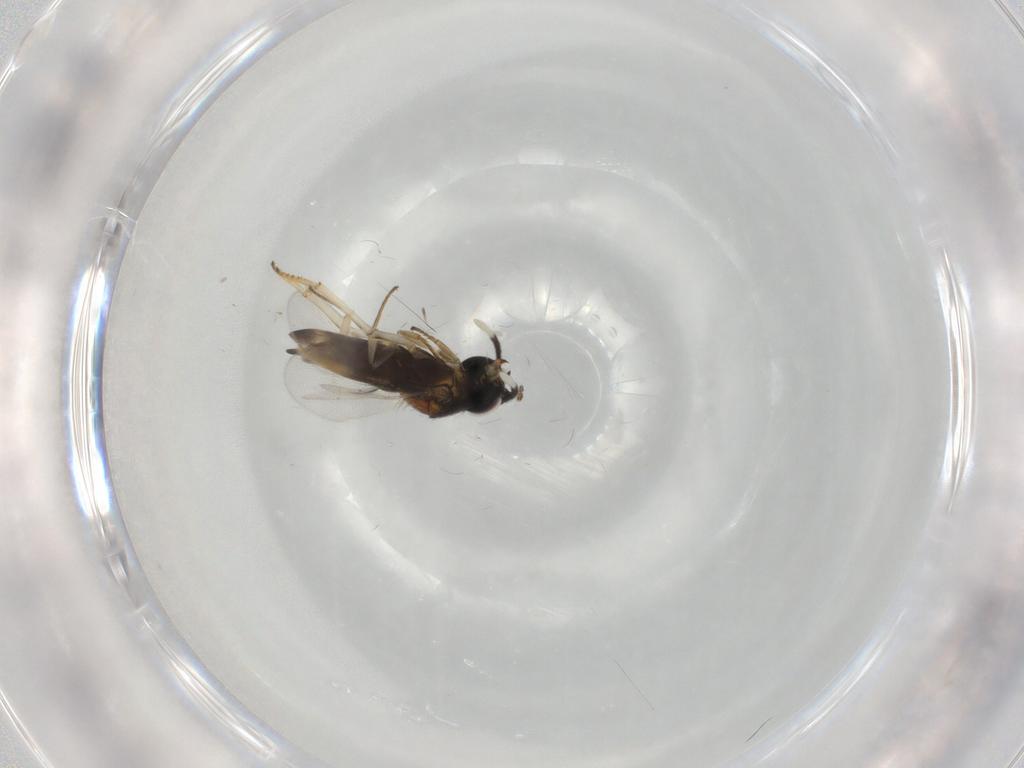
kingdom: Animalia
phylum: Arthropoda
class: Insecta
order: Hymenoptera
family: Encyrtidae
